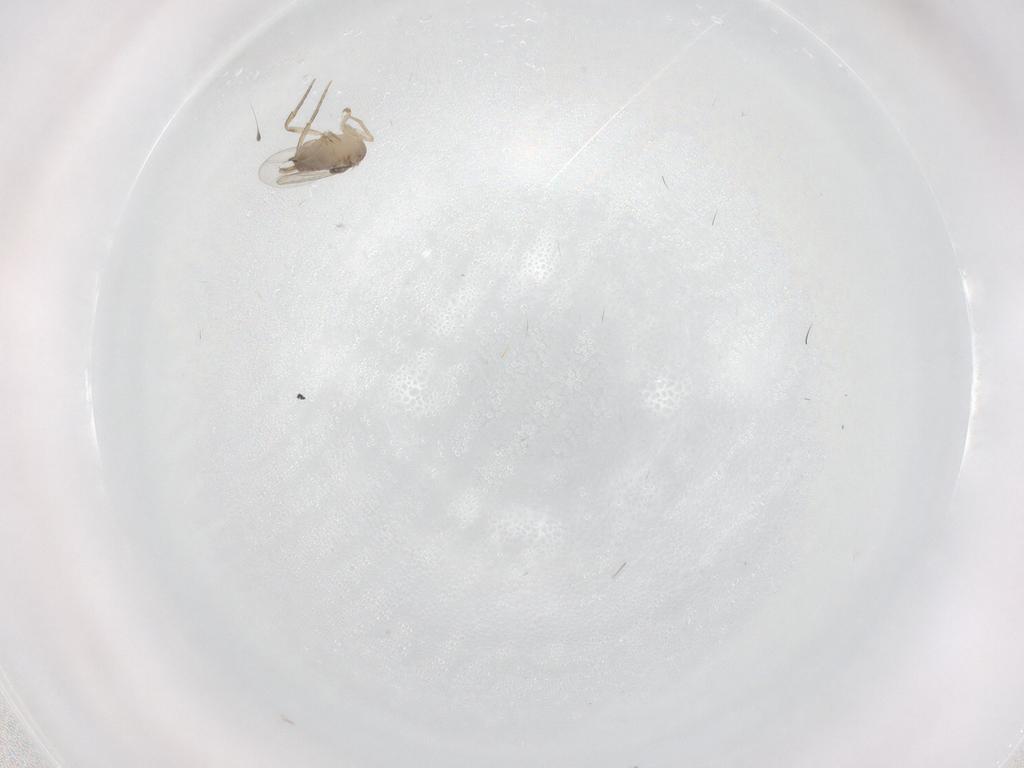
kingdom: Animalia
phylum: Arthropoda
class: Insecta
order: Diptera
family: Phoridae
